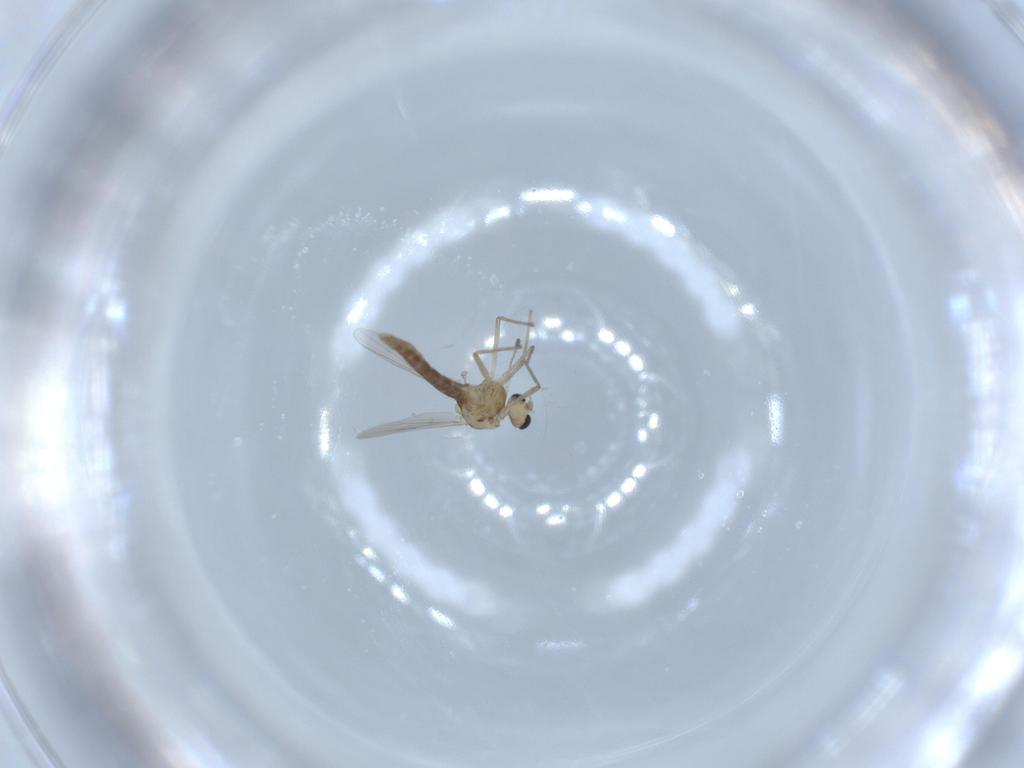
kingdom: Animalia
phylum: Arthropoda
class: Insecta
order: Diptera
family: Chironomidae
